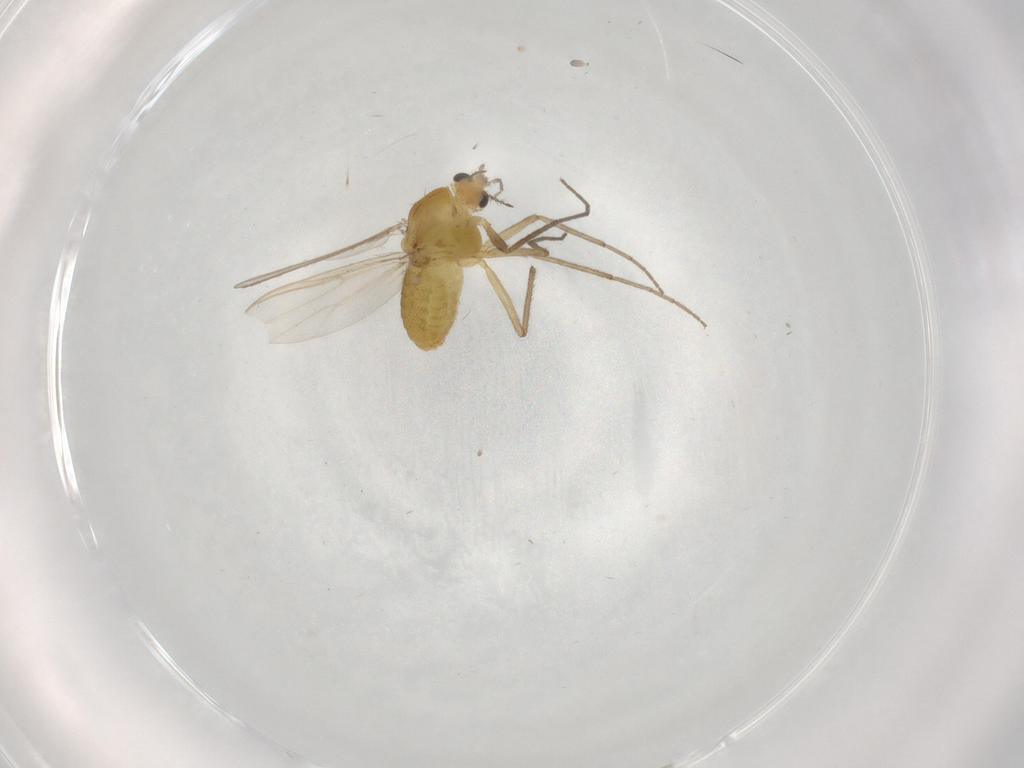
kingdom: Animalia
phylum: Arthropoda
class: Insecta
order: Diptera
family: Chironomidae
